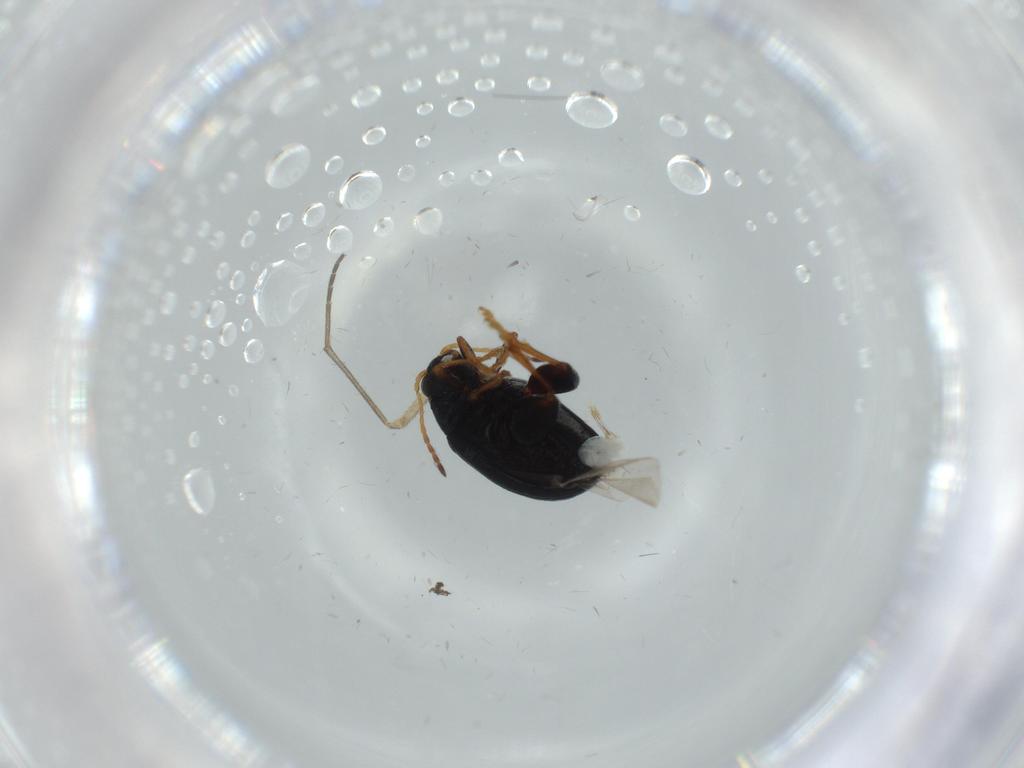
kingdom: Animalia
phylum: Arthropoda
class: Insecta
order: Coleoptera
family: Chrysomelidae
